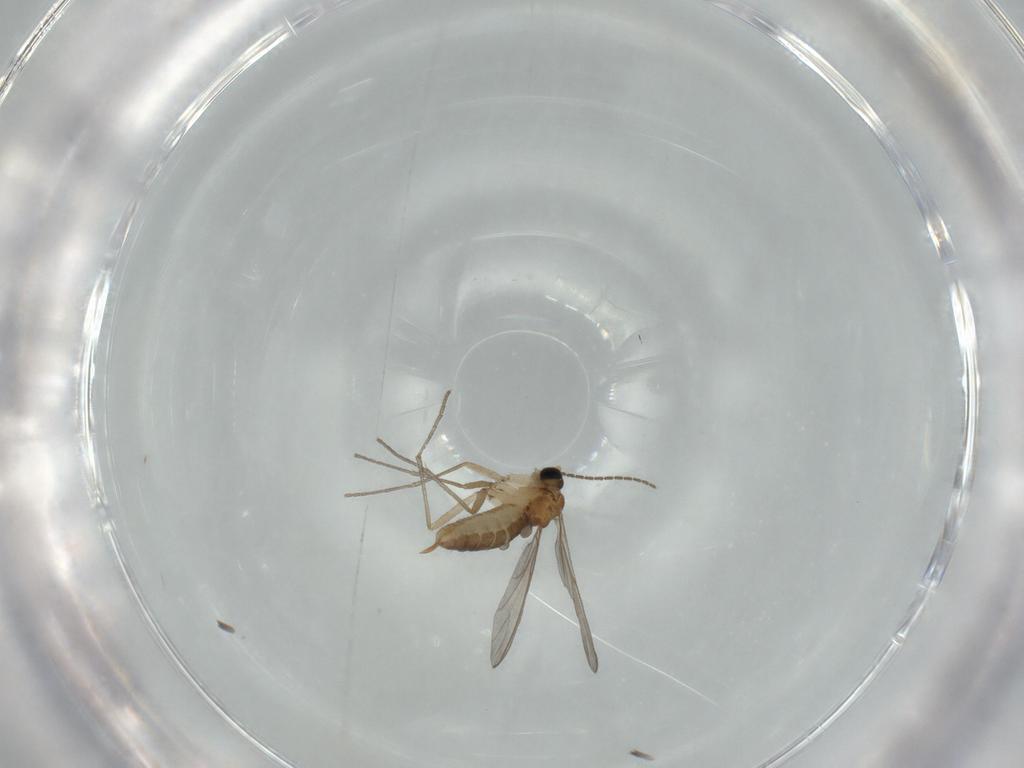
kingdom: Animalia
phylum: Arthropoda
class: Insecta
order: Diptera
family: Sciaridae
